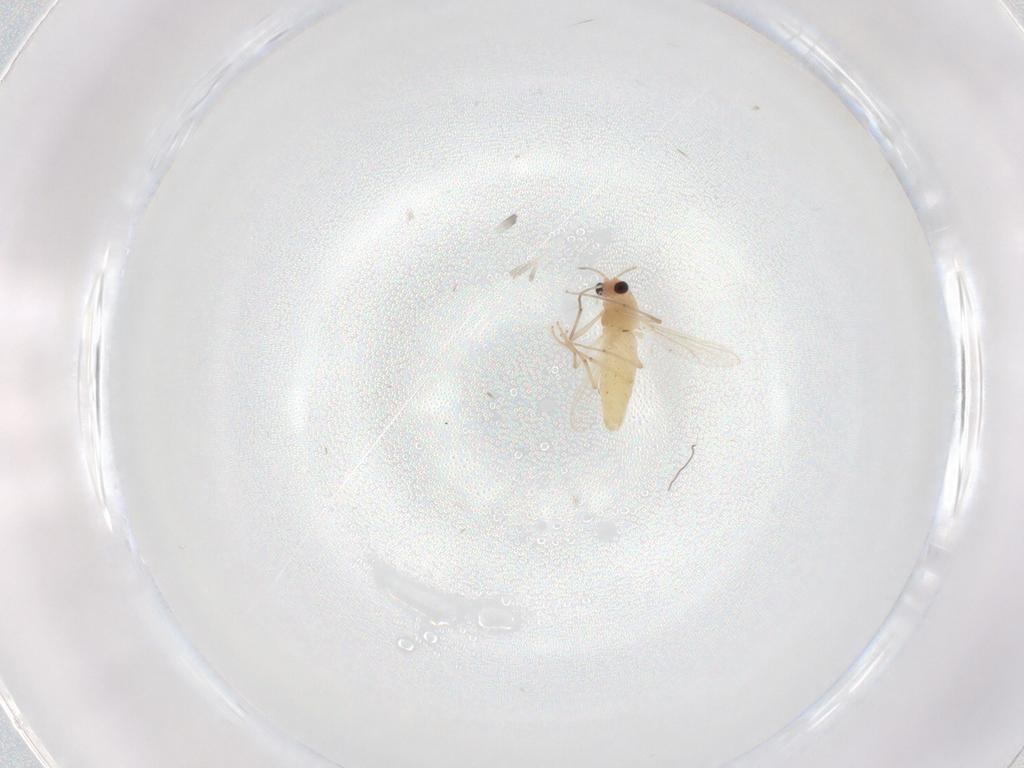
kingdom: Animalia
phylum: Arthropoda
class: Insecta
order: Diptera
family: Chironomidae
